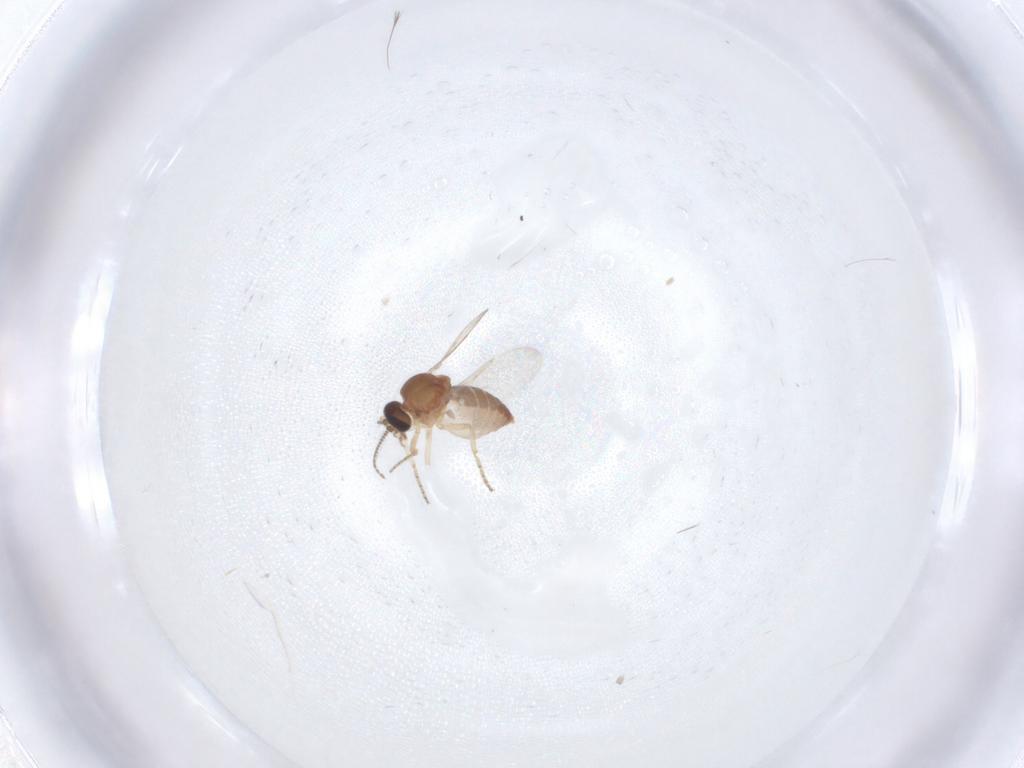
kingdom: Animalia
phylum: Arthropoda
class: Insecta
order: Diptera
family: Ceratopogonidae
